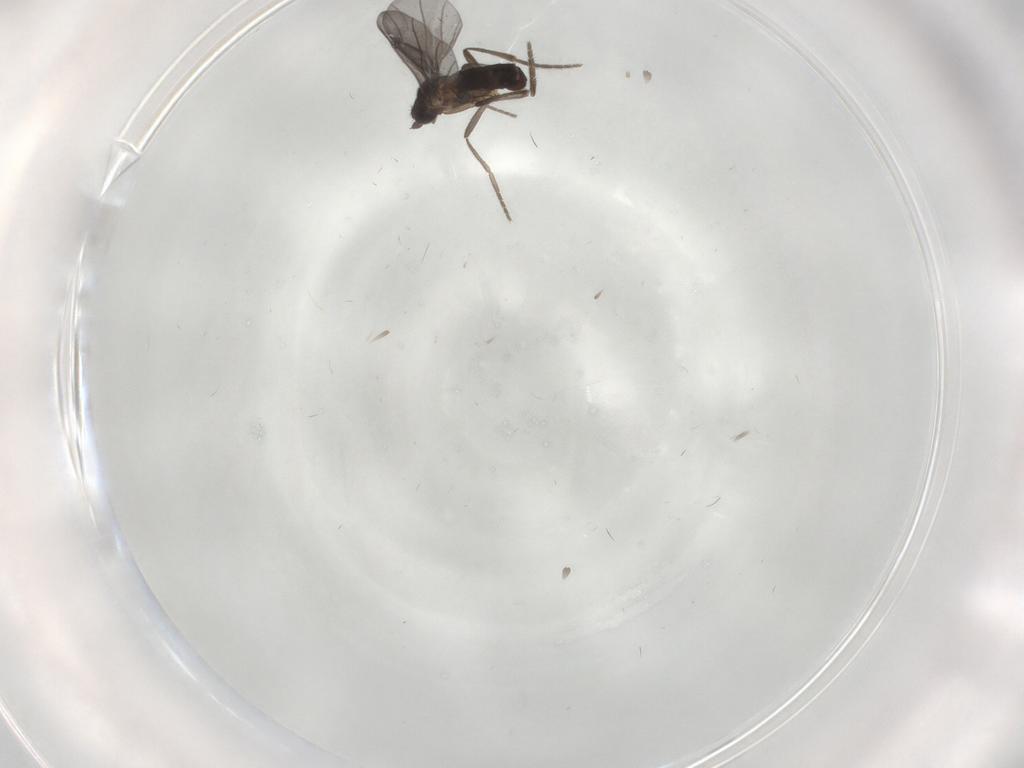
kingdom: Animalia
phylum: Arthropoda
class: Insecta
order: Diptera
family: Phoridae
